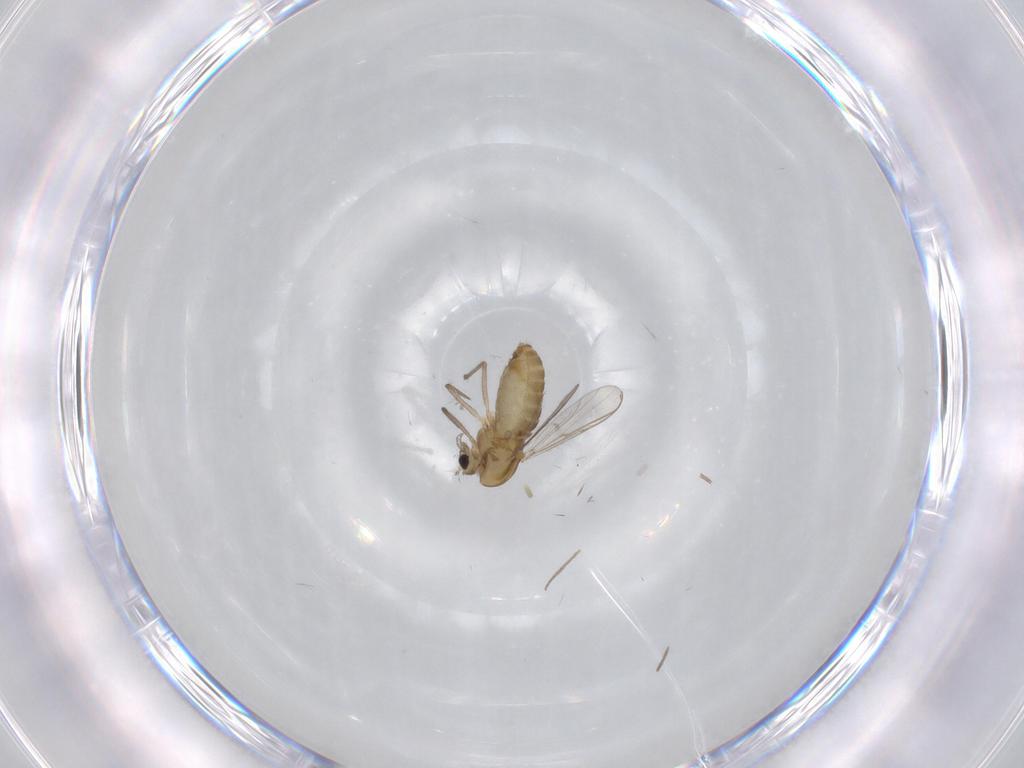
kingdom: Animalia
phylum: Arthropoda
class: Insecta
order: Diptera
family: Chironomidae
